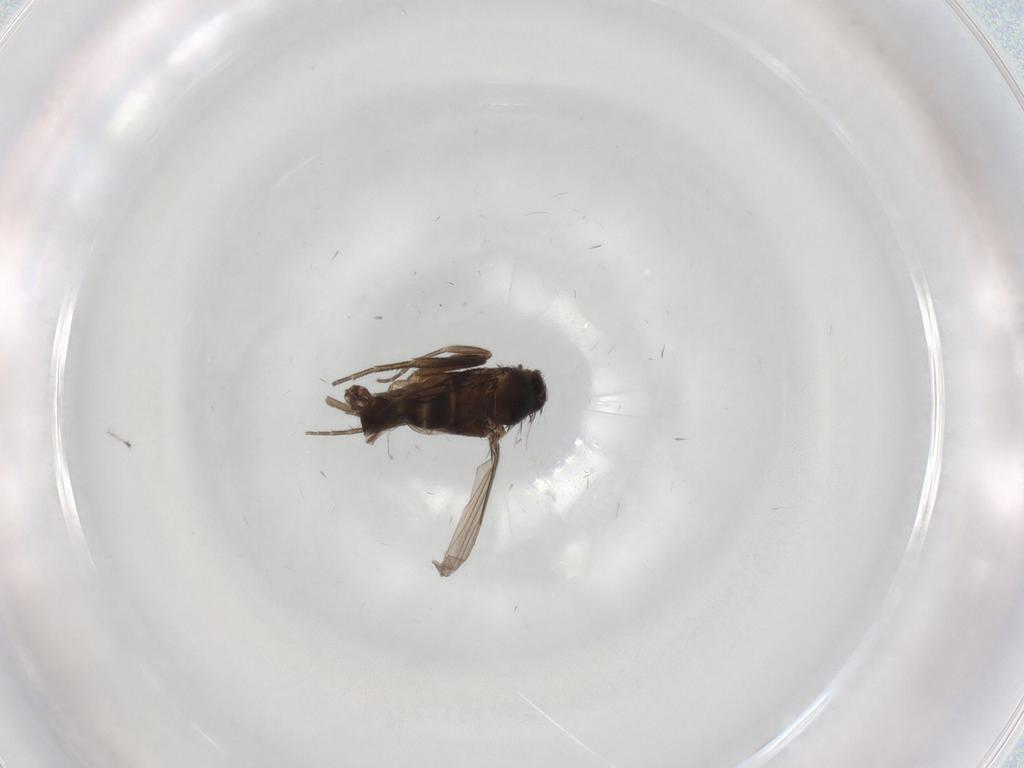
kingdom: Animalia
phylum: Arthropoda
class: Insecta
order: Diptera
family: Phoridae
